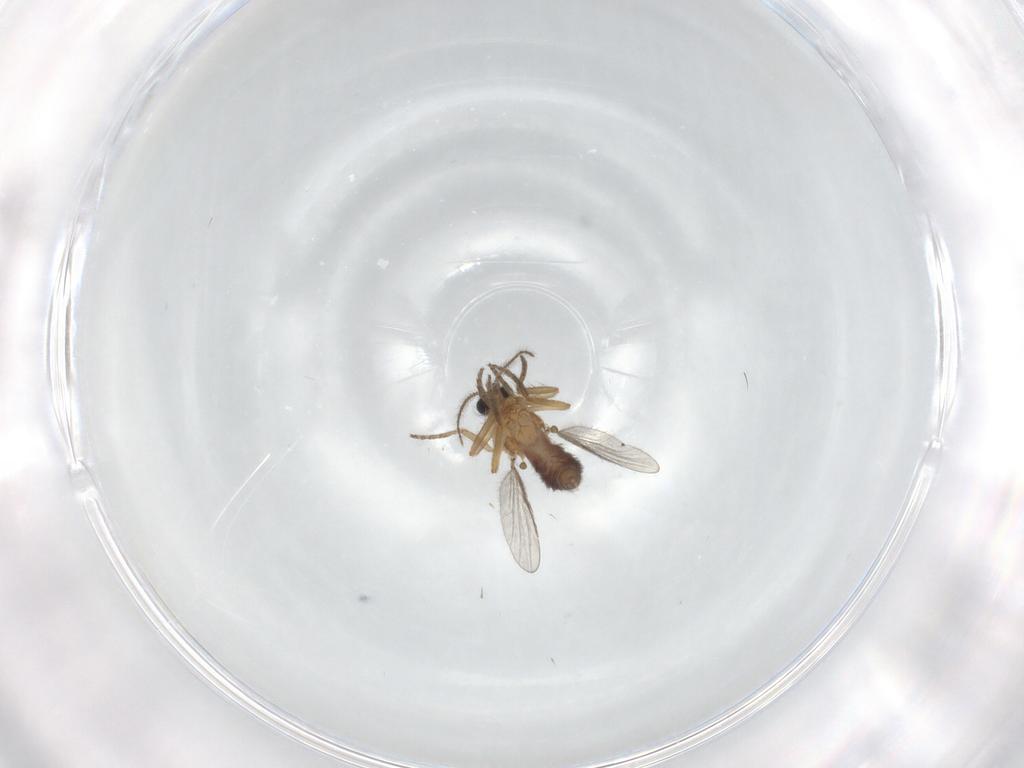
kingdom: Animalia
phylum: Arthropoda
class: Insecta
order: Diptera
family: Ceratopogonidae
